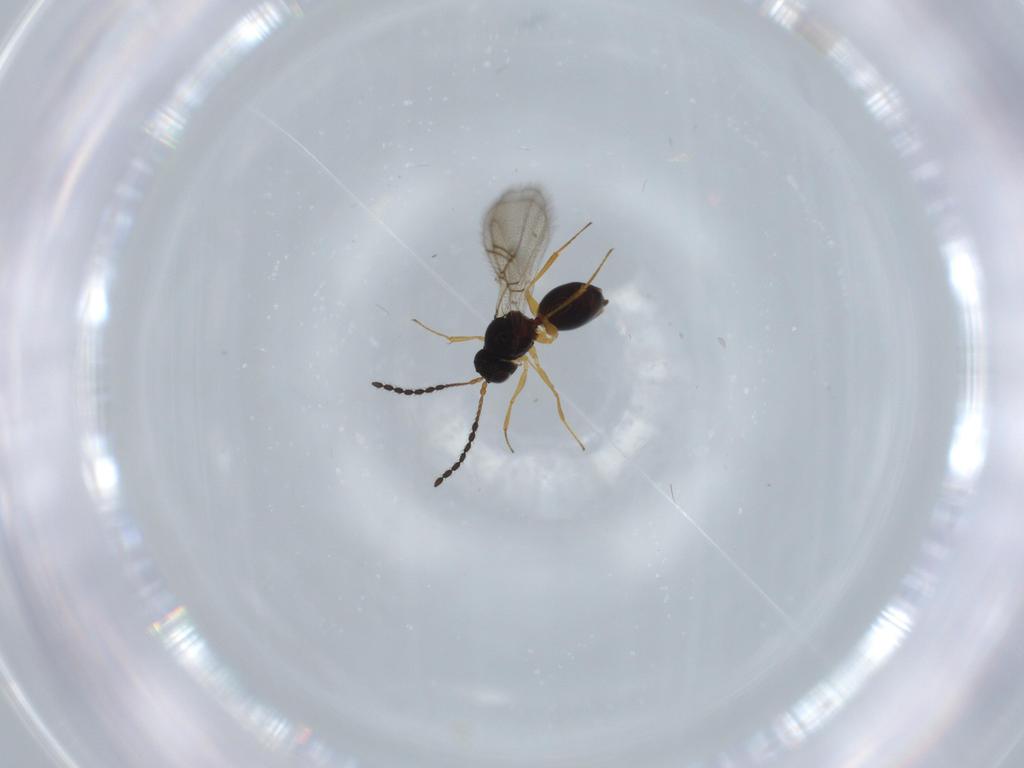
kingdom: Animalia
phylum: Arthropoda
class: Insecta
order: Hymenoptera
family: Figitidae
